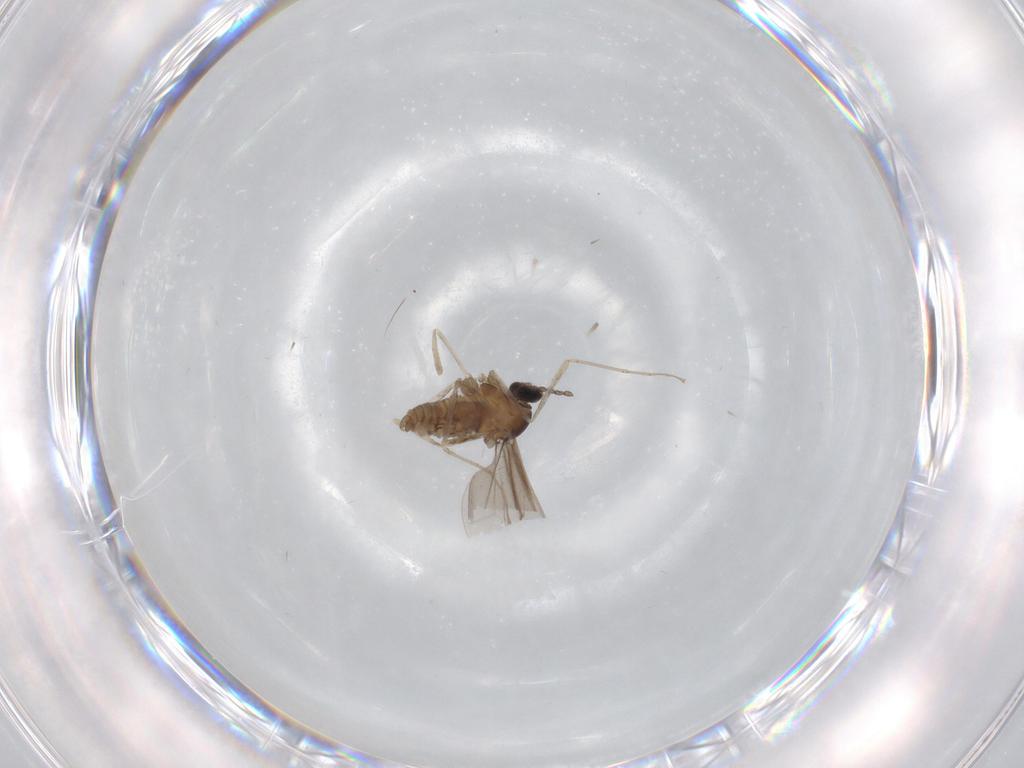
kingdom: Animalia
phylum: Arthropoda
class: Insecta
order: Diptera
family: Cecidomyiidae
